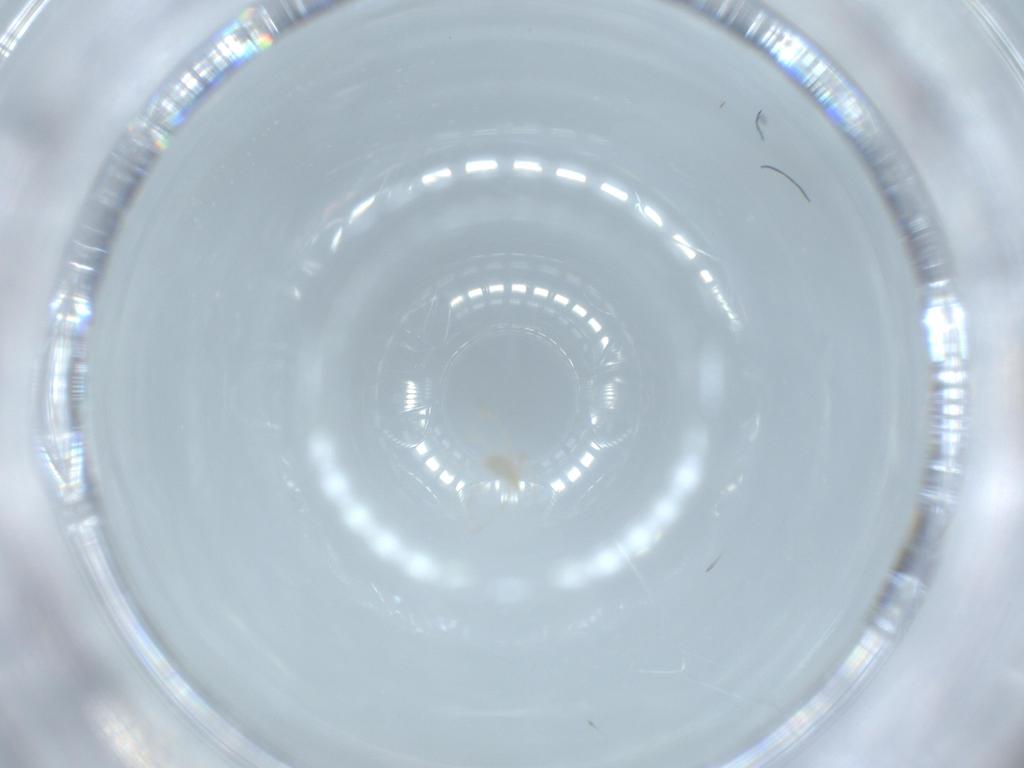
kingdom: Animalia
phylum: Arthropoda
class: Arachnida
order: Trombidiformes
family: Erythraeidae
